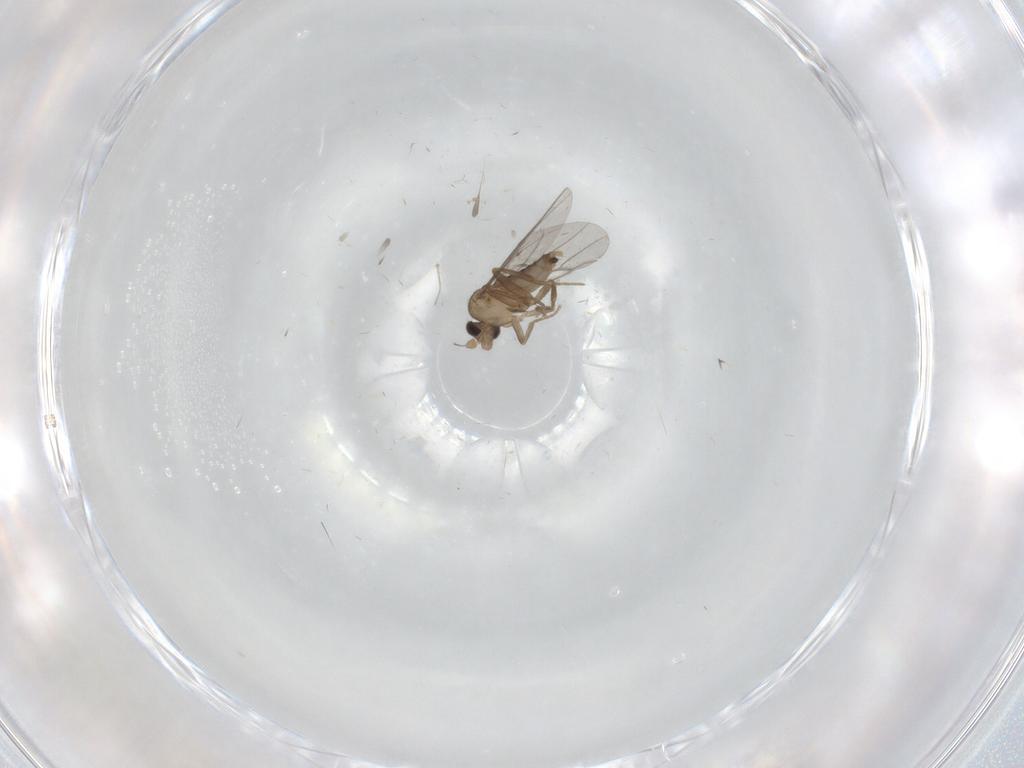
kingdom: Animalia
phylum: Arthropoda
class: Insecta
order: Diptera
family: Ceratopogonidae
